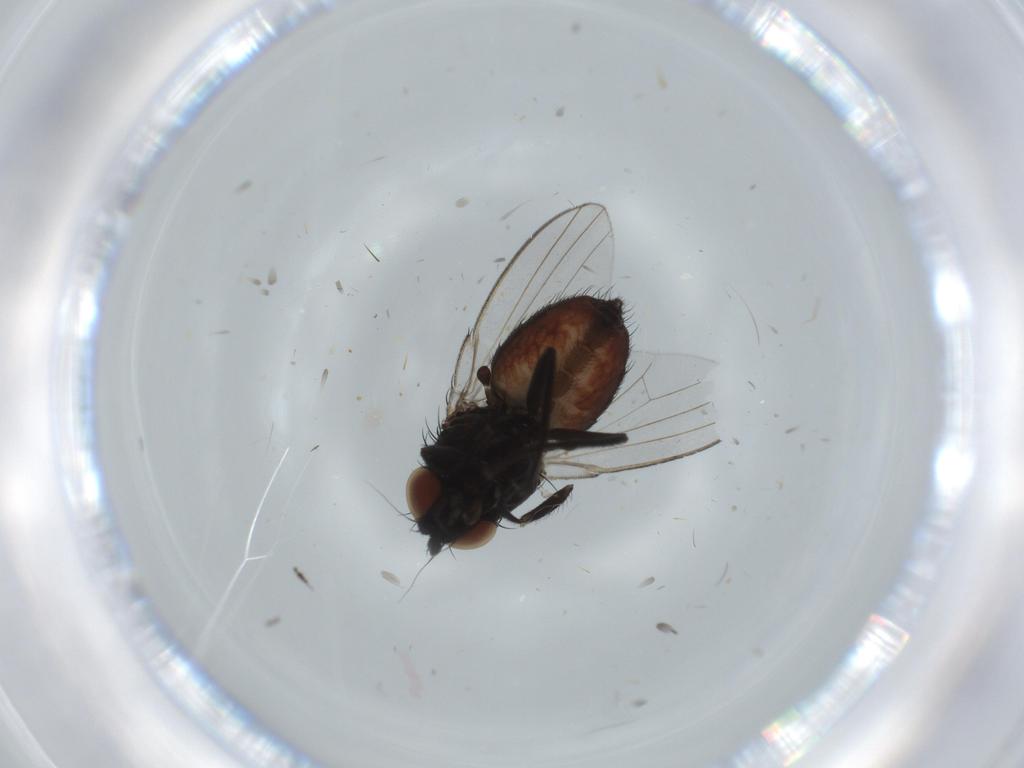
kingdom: Animalia
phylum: Arthropoda
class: Insecta
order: Diptera
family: Milichiidae
